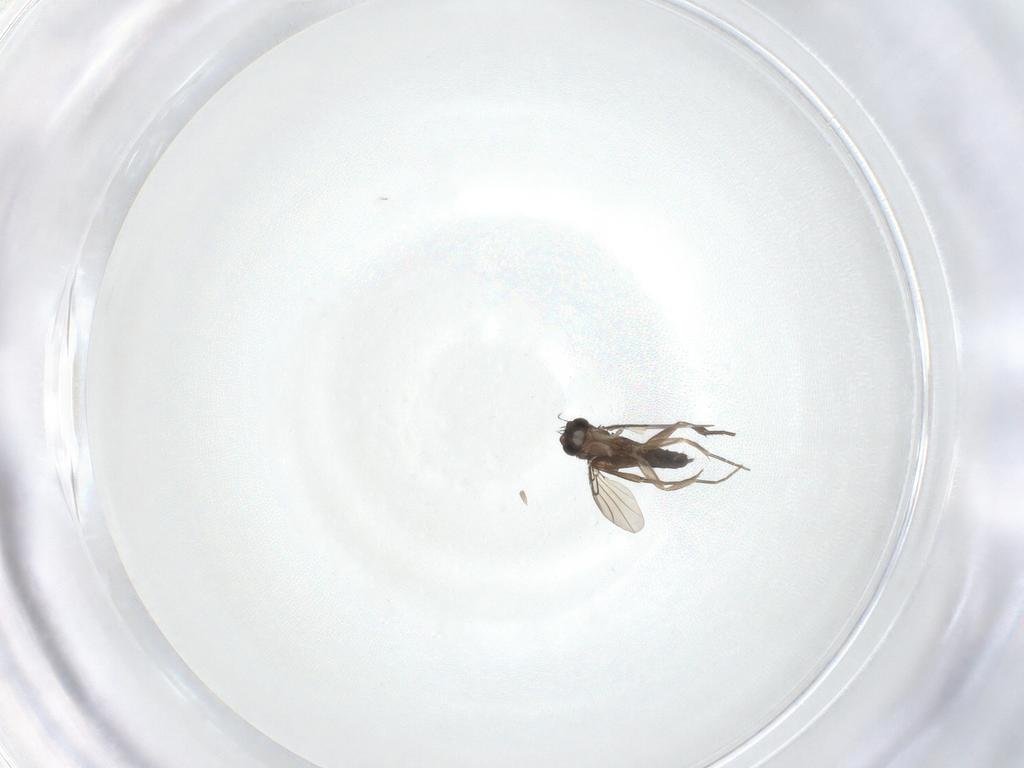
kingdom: Animalia
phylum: Arthropoda
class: Insecta
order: Diptera
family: Phoridae
